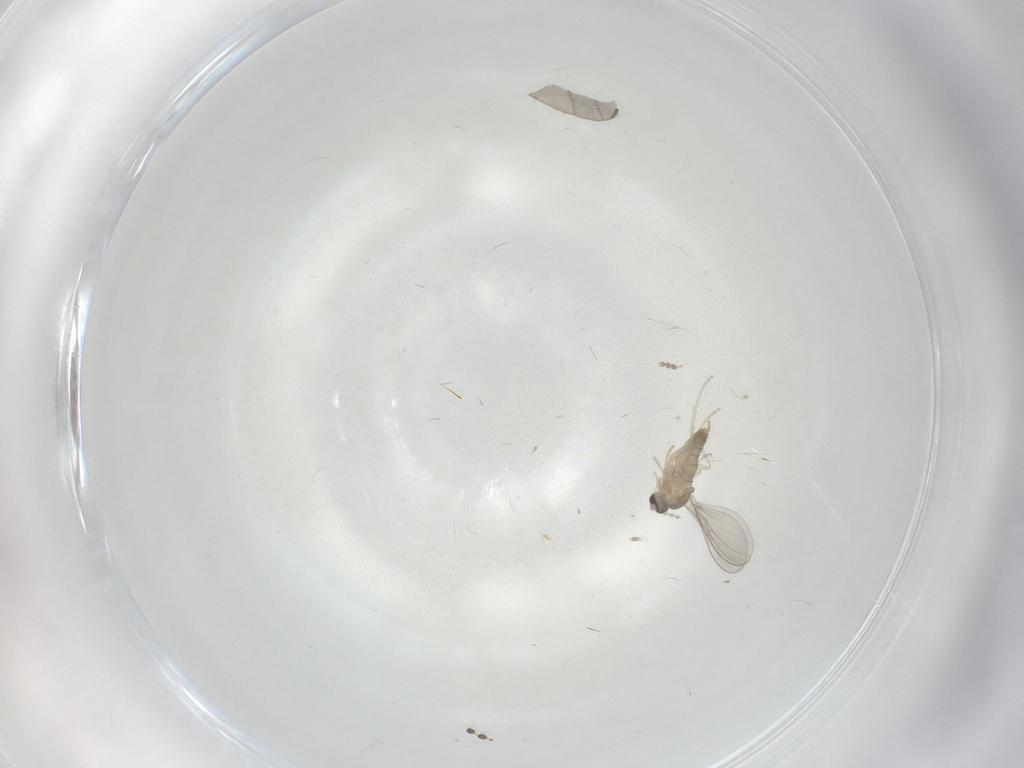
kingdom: Animalia
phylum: Arthropoda
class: Insecta
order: Diptera
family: Cecidomyiidae
